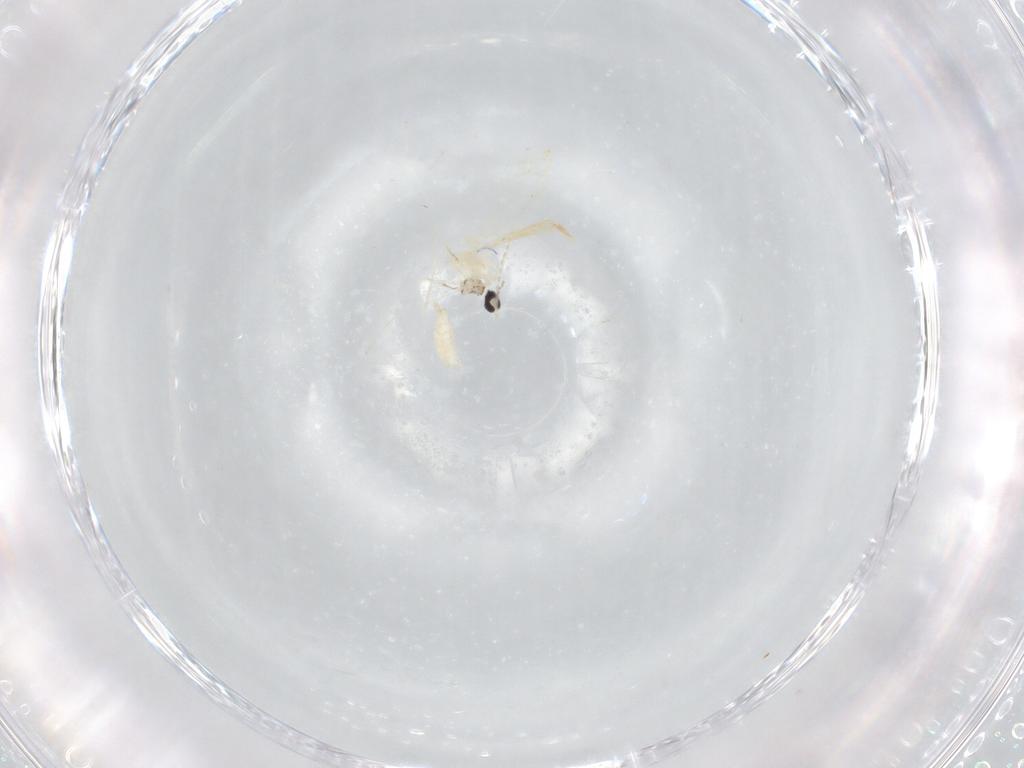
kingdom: Animalia
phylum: Arthropoda
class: Insecta
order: Diptera
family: Cecidomyiidae
